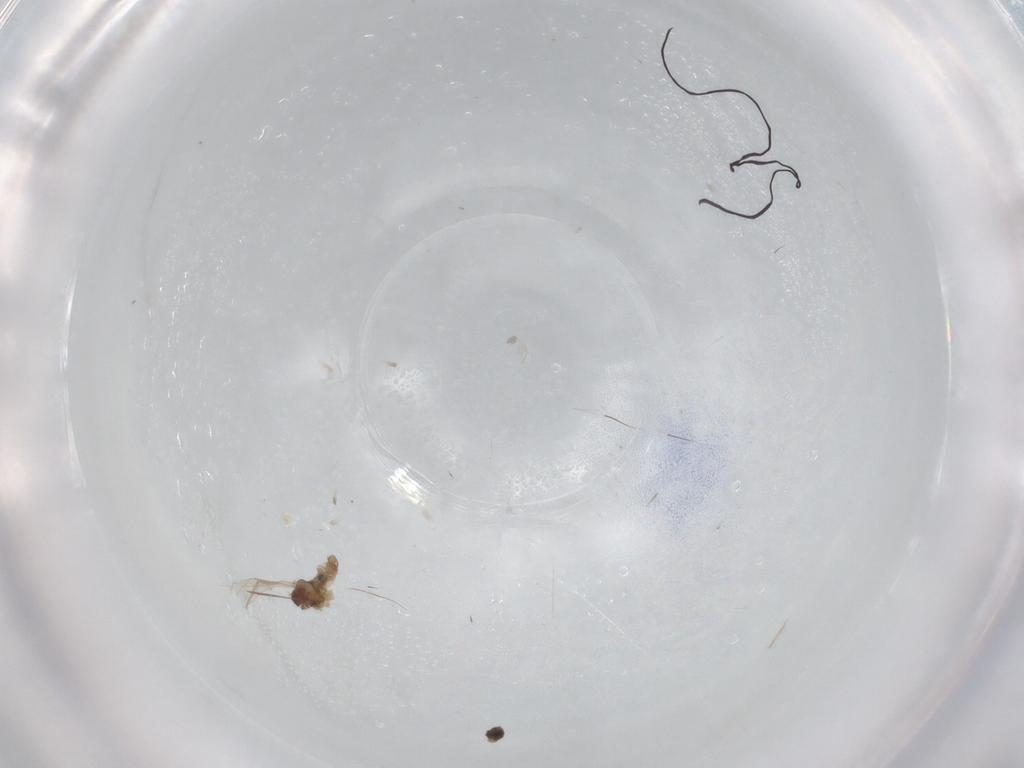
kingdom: Animalia
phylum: Arthropoda
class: Insecta
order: Diptera
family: Cecidomyiidae
